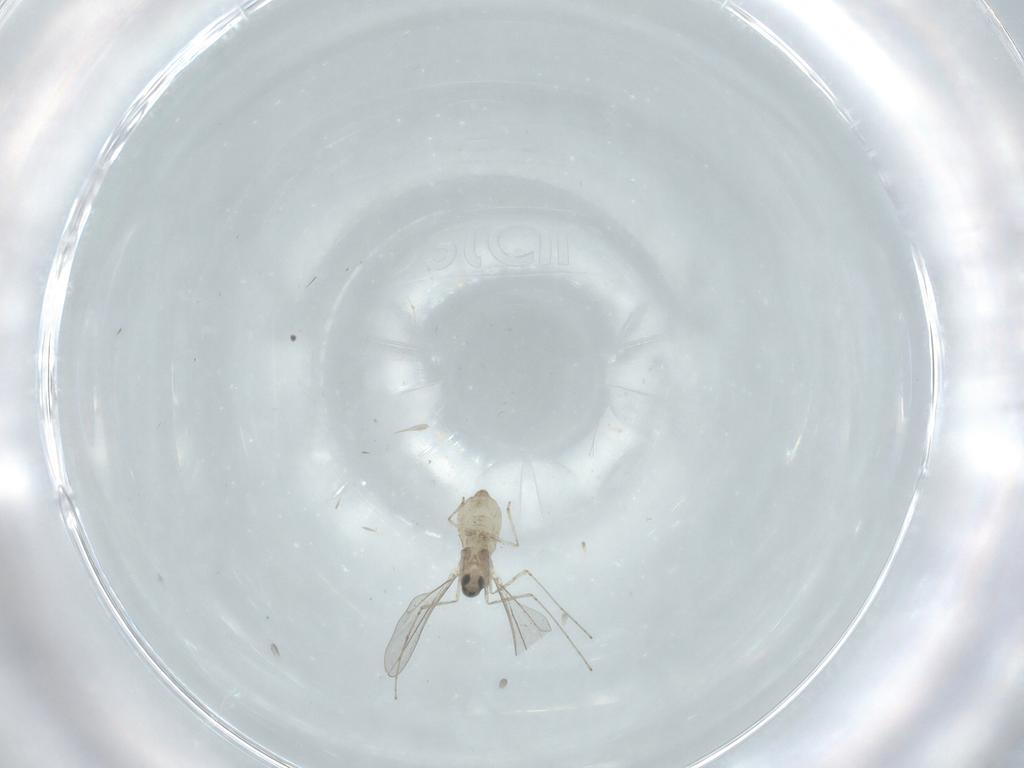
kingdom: Animalia
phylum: Arthropoda
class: Insecta
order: Diptera
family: Cecidomyiidae
